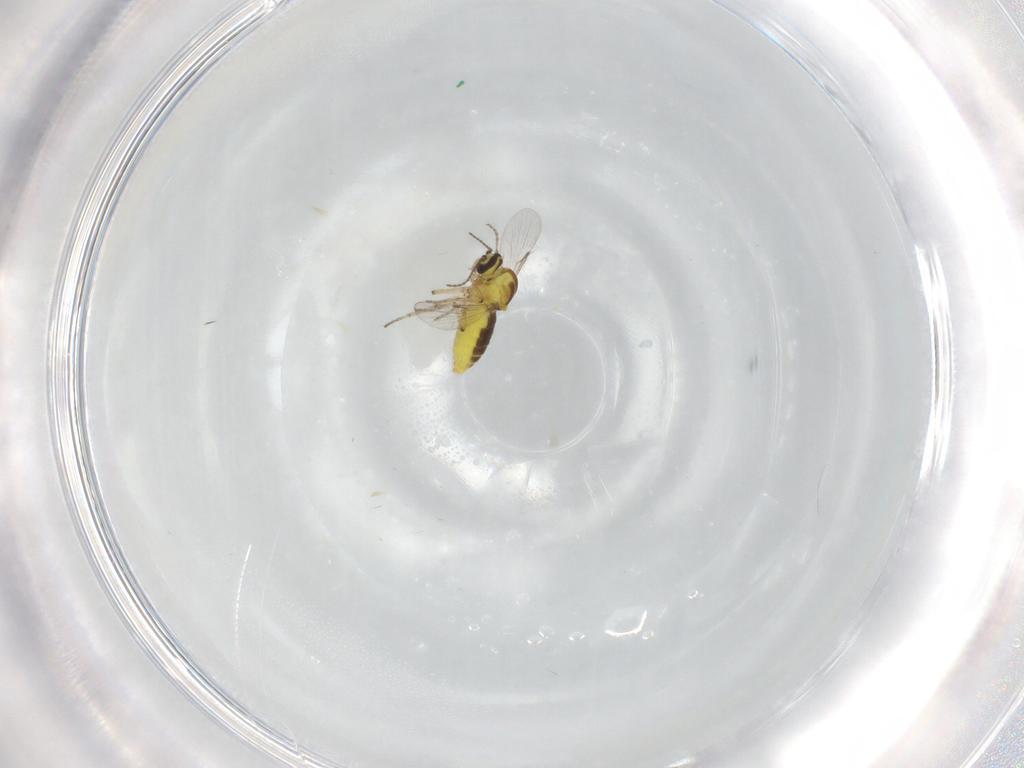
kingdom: Animalia
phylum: Arthropoda
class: Insecta
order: Diptera
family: Ceratopogonidae
